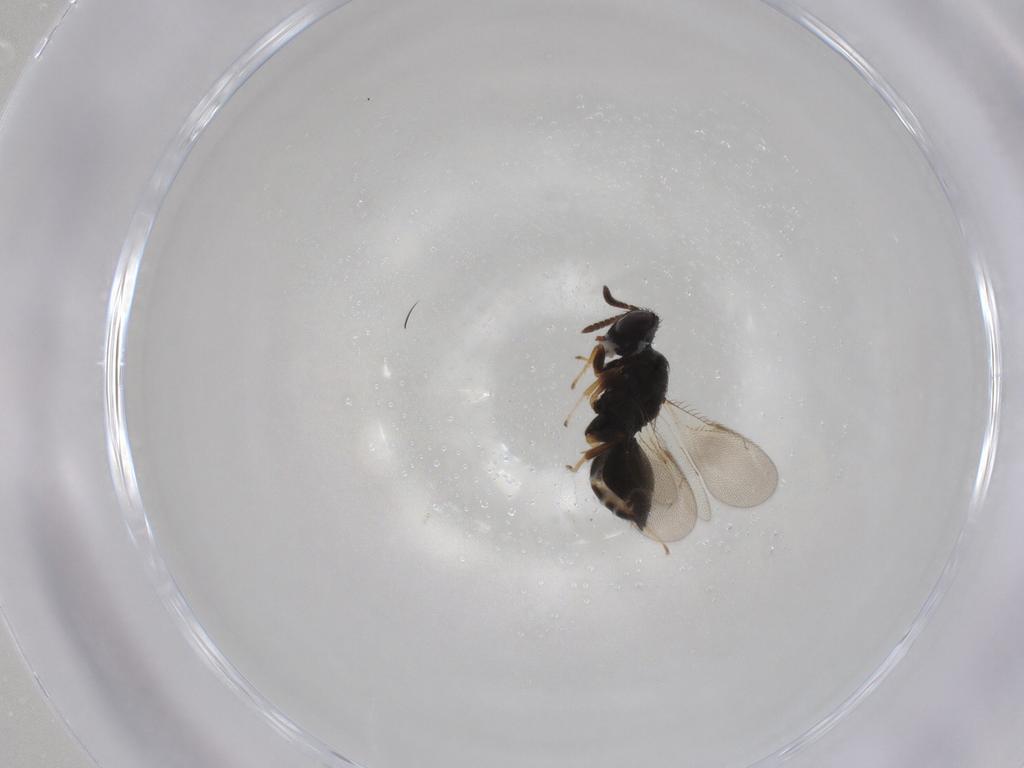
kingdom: Animalia
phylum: Arthropoda
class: Insecta
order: Hymenoptera
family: Pteromalidae
